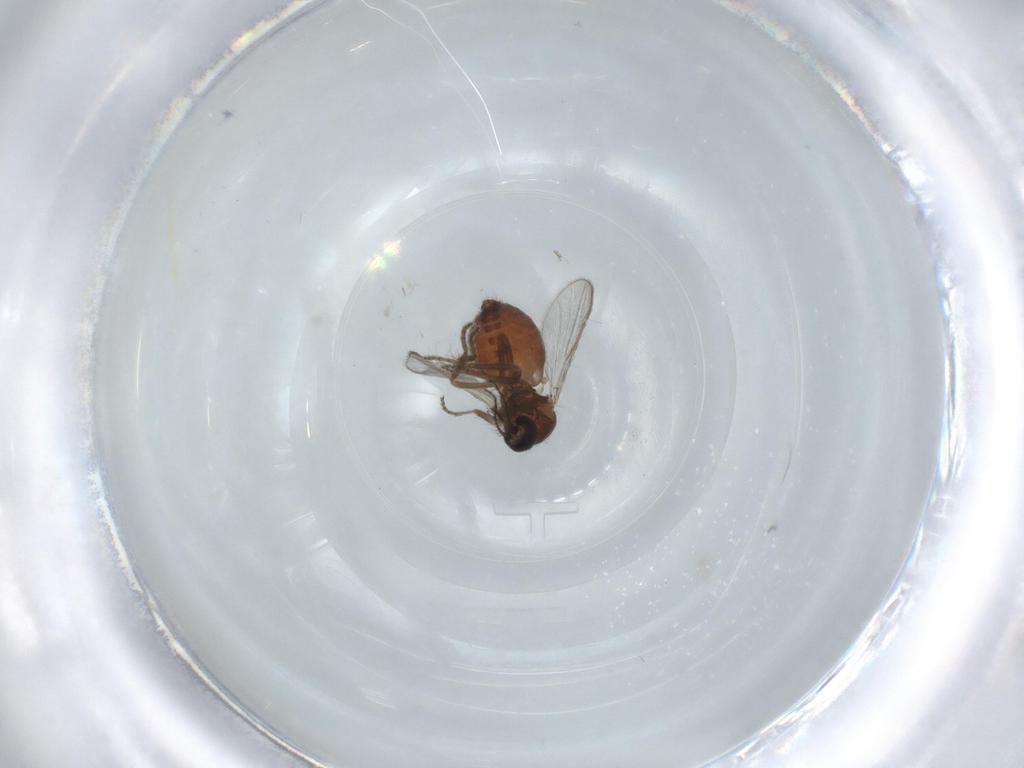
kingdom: Animalia
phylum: Arthropoda
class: Insecta
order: Diptera
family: Ceratopogonidae
